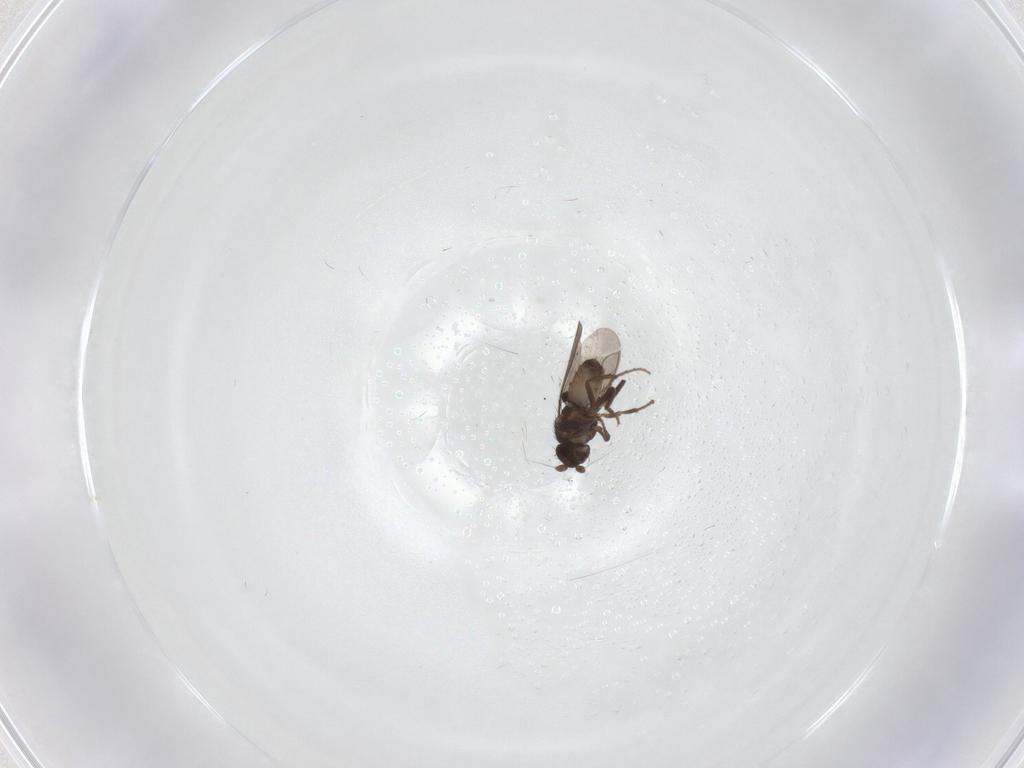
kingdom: Animalia
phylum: Arthropoda
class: Insecta
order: Diptera
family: Sphaeroceridae
